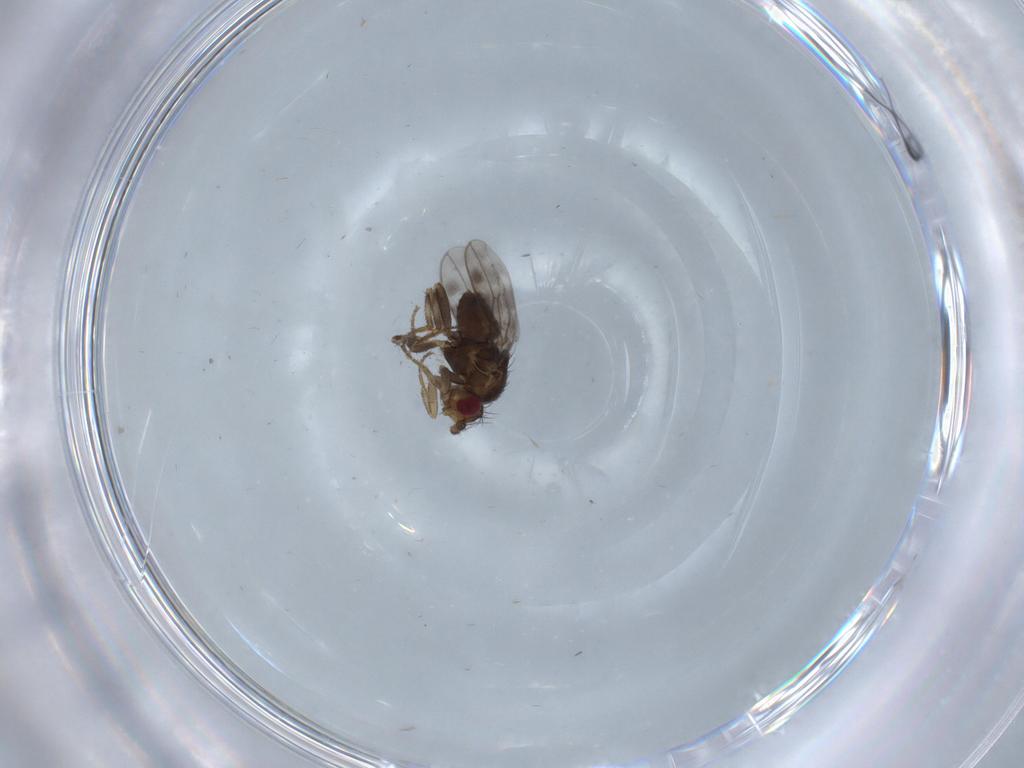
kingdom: Animalia
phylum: Arthropoda
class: Insecta
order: Diptera
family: Sphaeroceridae
